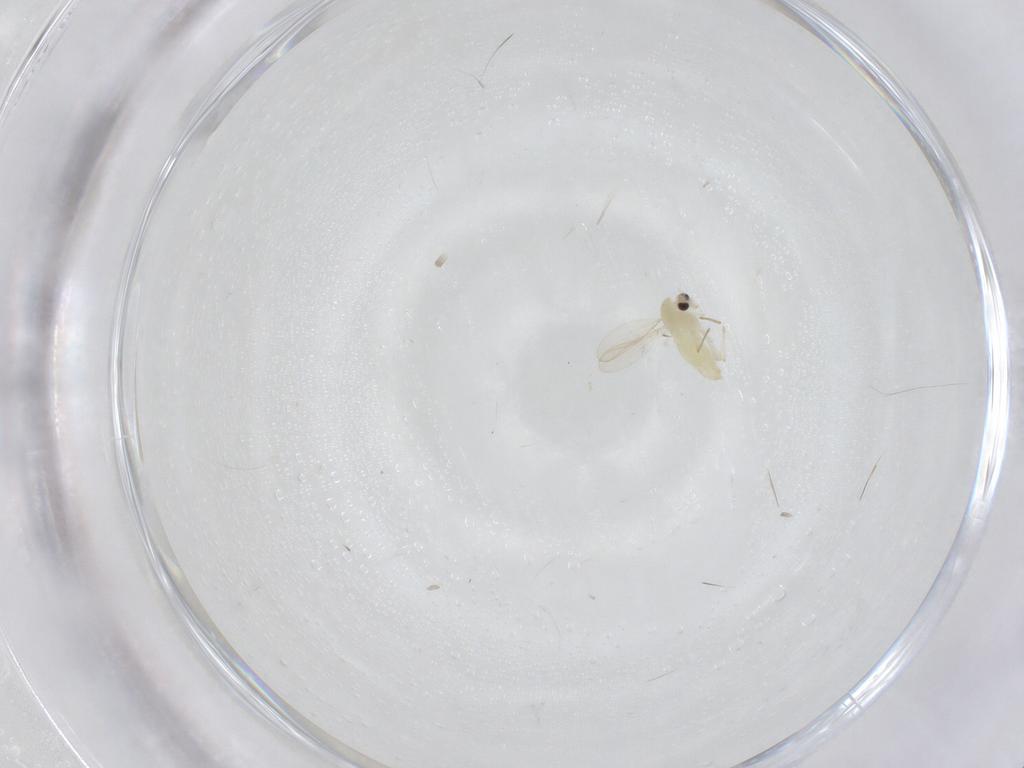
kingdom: Animalia
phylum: Arthropoda
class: Insecta
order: Diptera
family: Chironomidae
